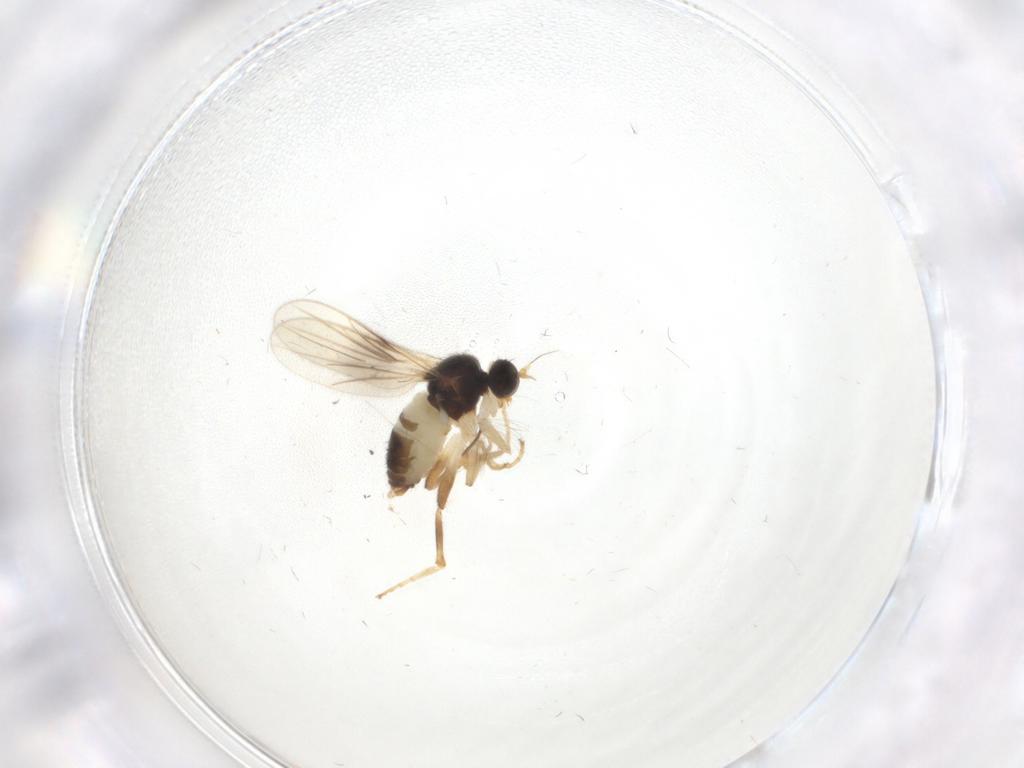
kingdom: Animalia
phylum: Arthropoda
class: Insecta
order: Diptera
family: Hybotidae
